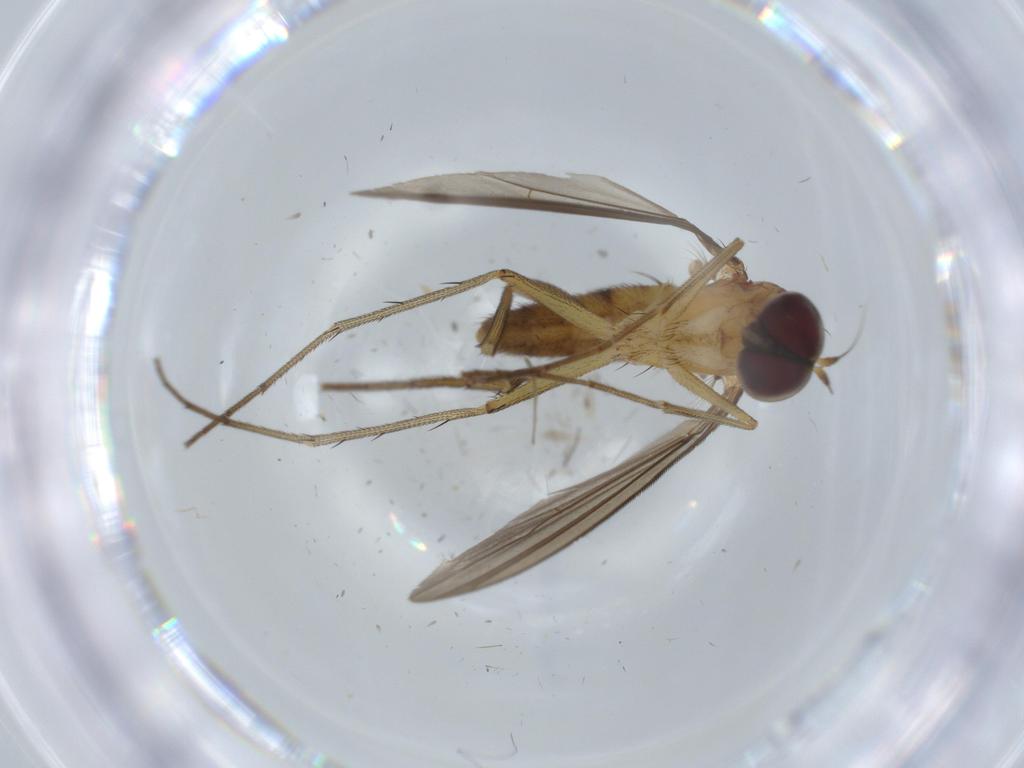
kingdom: Animalia
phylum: Arthropoda
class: Insecta
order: Diptera
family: Dolichopodidae
